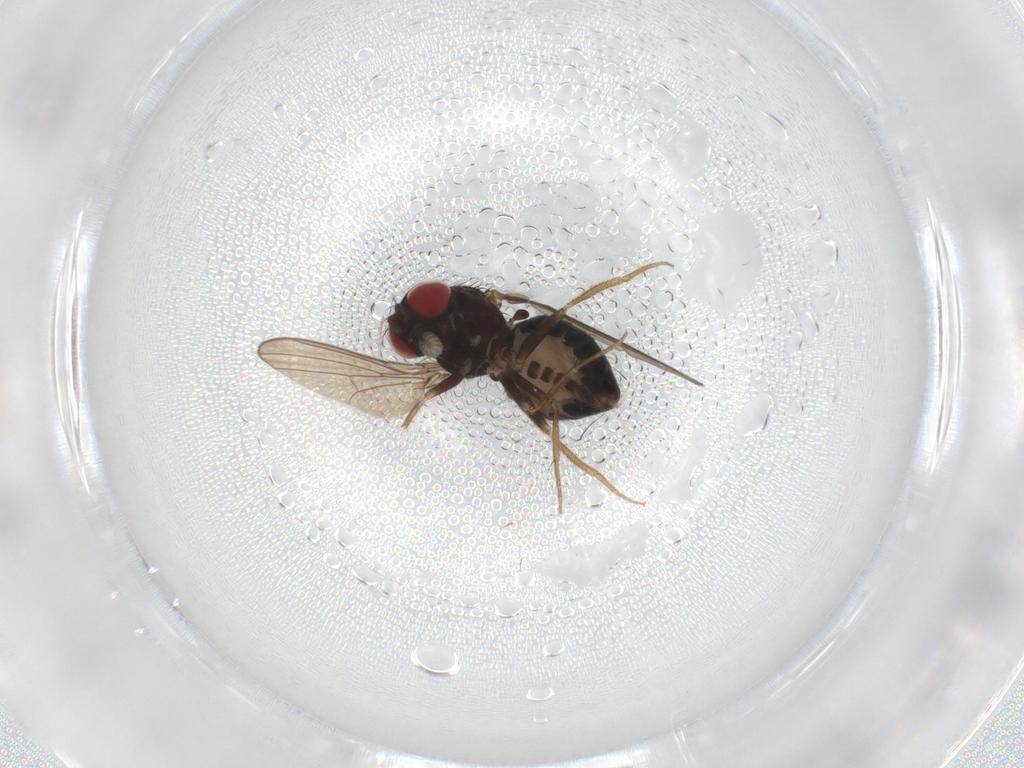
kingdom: Animalia
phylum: Arthropoda
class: Insecta
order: Diptera
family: Drosophilidae
